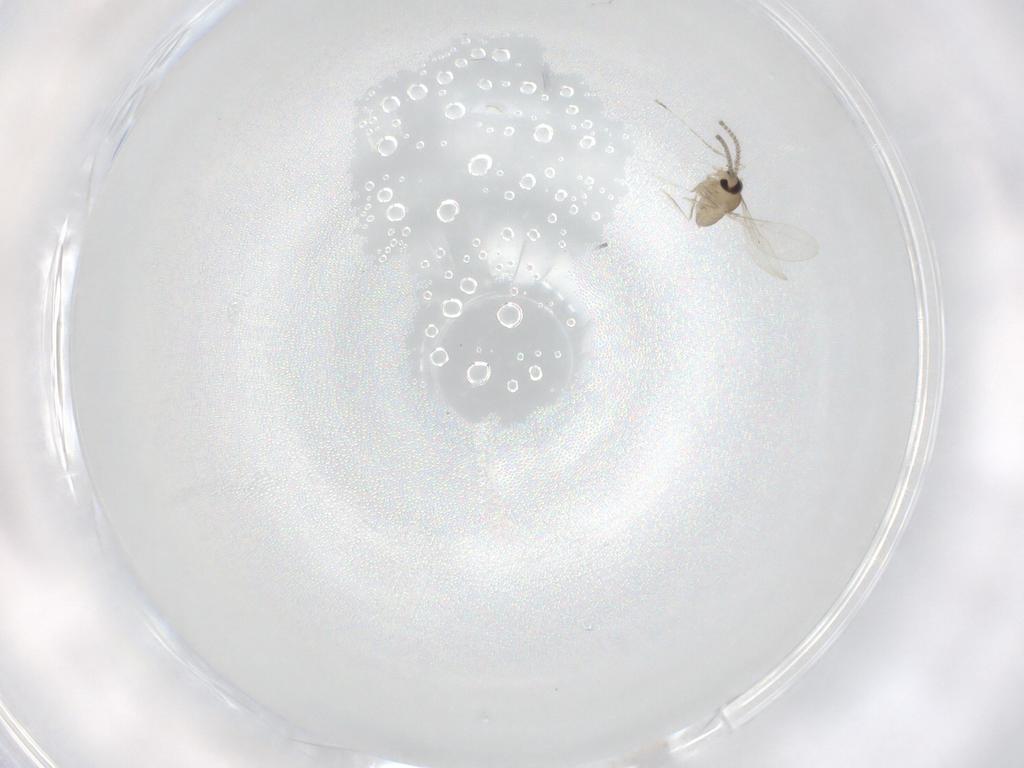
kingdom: Animalia
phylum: Arthropoda
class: Insecta
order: Diptera
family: Cecidomyiidae
